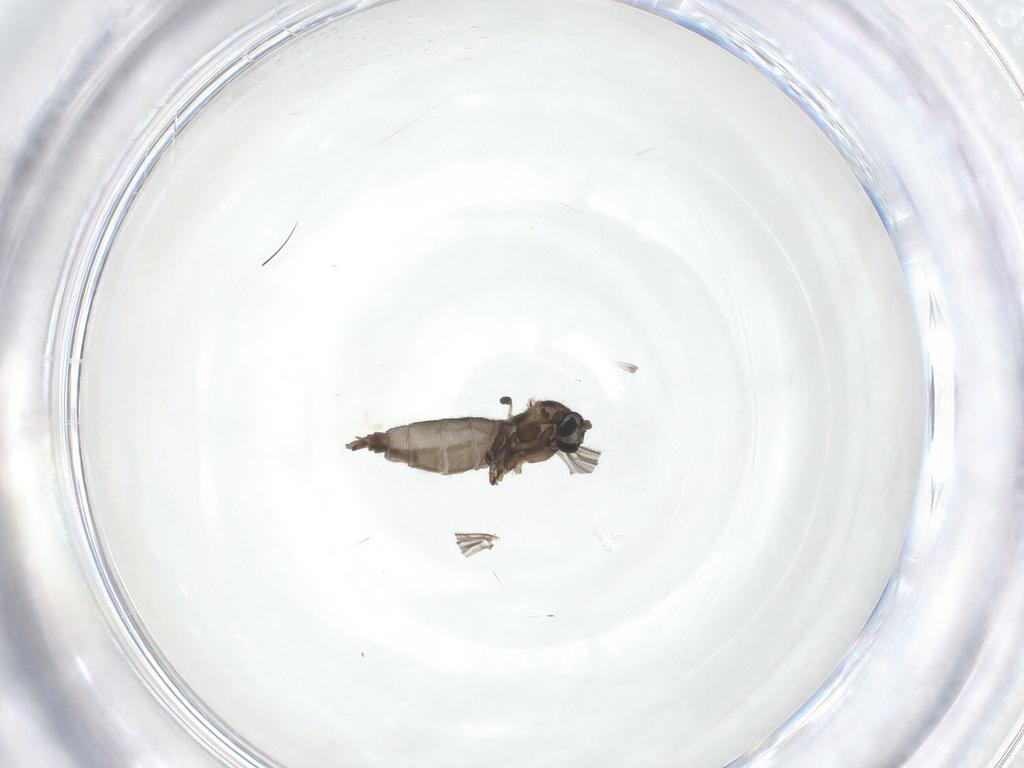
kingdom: Animalia
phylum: Arthropoda
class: Insecta
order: Diptera
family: Sciaridae
